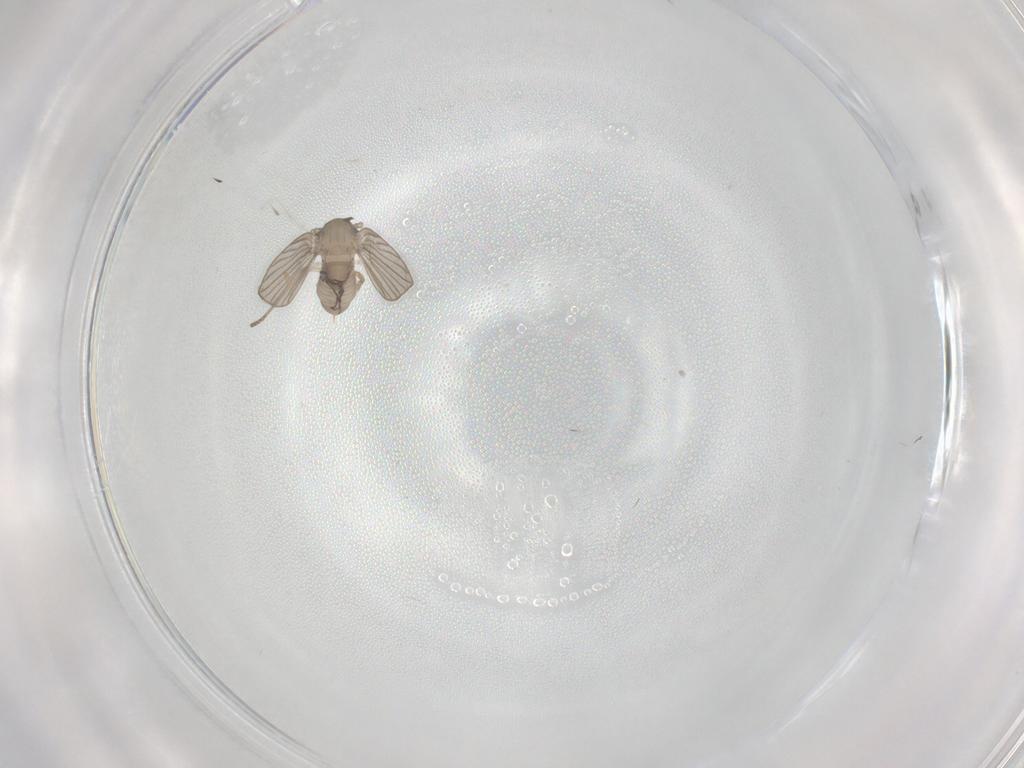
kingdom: Animalia
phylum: Arthropoda
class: Insecta
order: Diptera
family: Psychodidae
